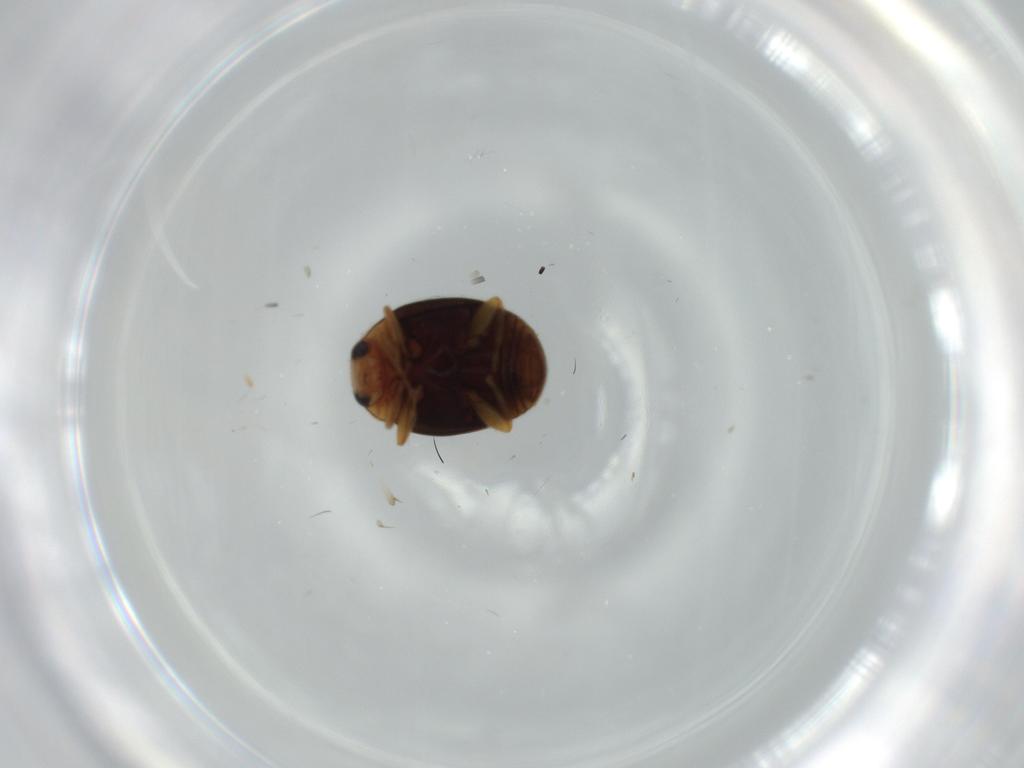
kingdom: Animalia
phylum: Arthropoda
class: Insecta
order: Coleoptera
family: Coccinellidae
